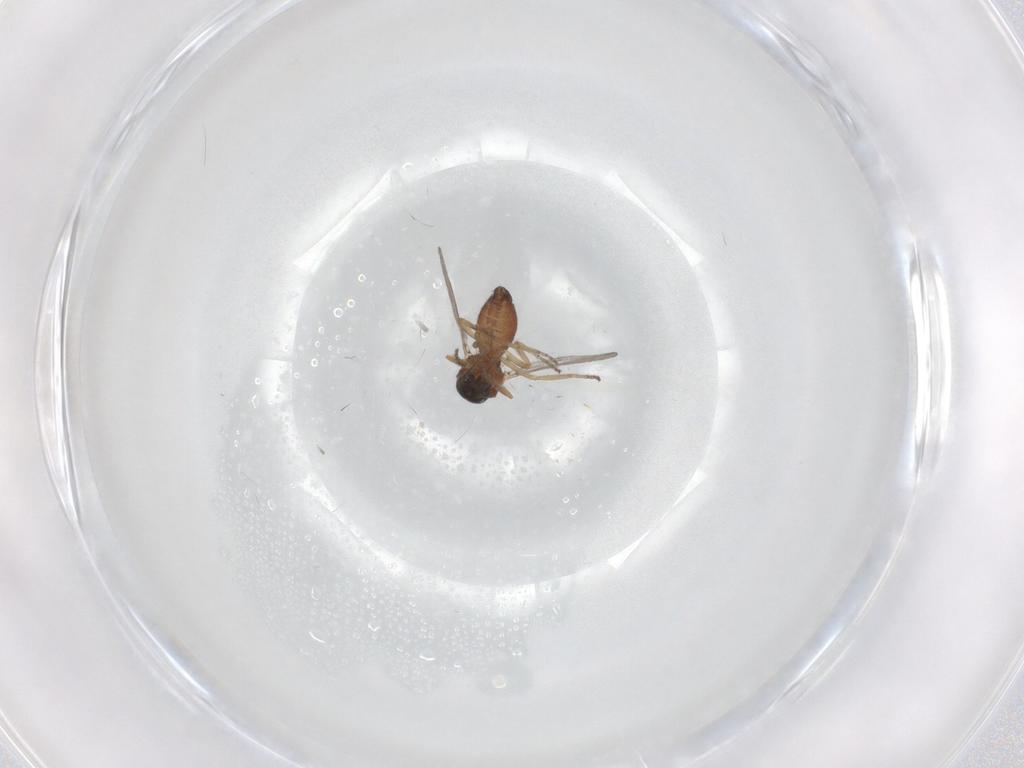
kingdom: Animalia
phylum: Arthropoda
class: Insecta
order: Diptera
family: Ceratopogonidae
